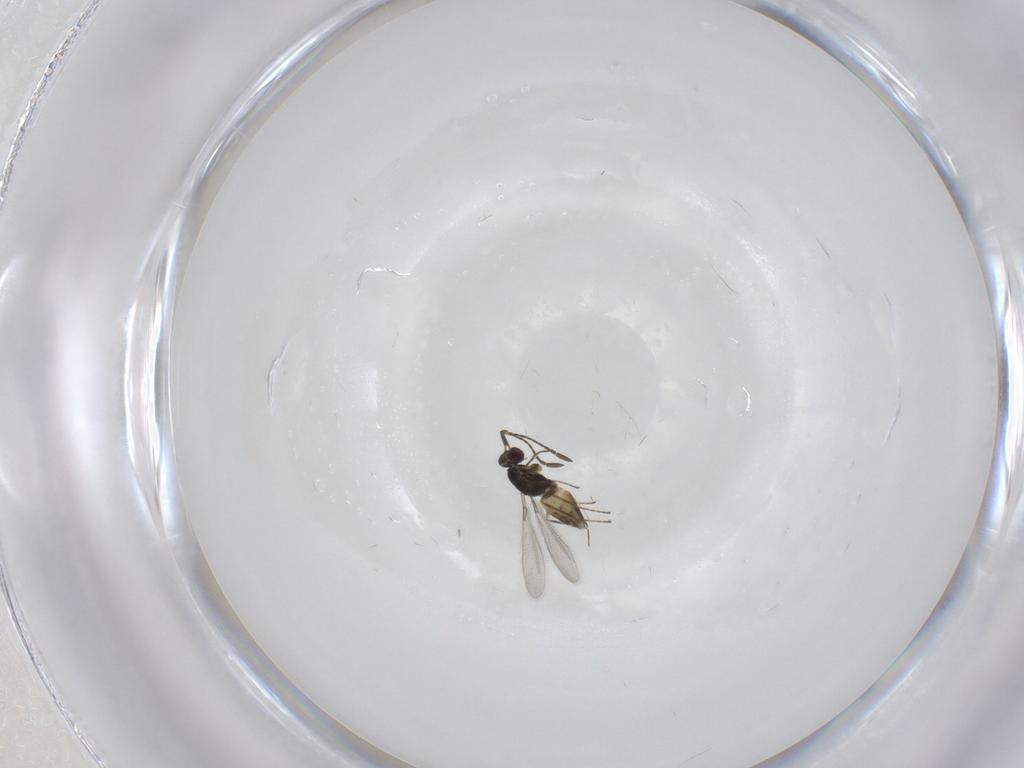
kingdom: Animalia
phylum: Arthropoda
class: Insecta
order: Hymenoptera
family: Mymaridae
